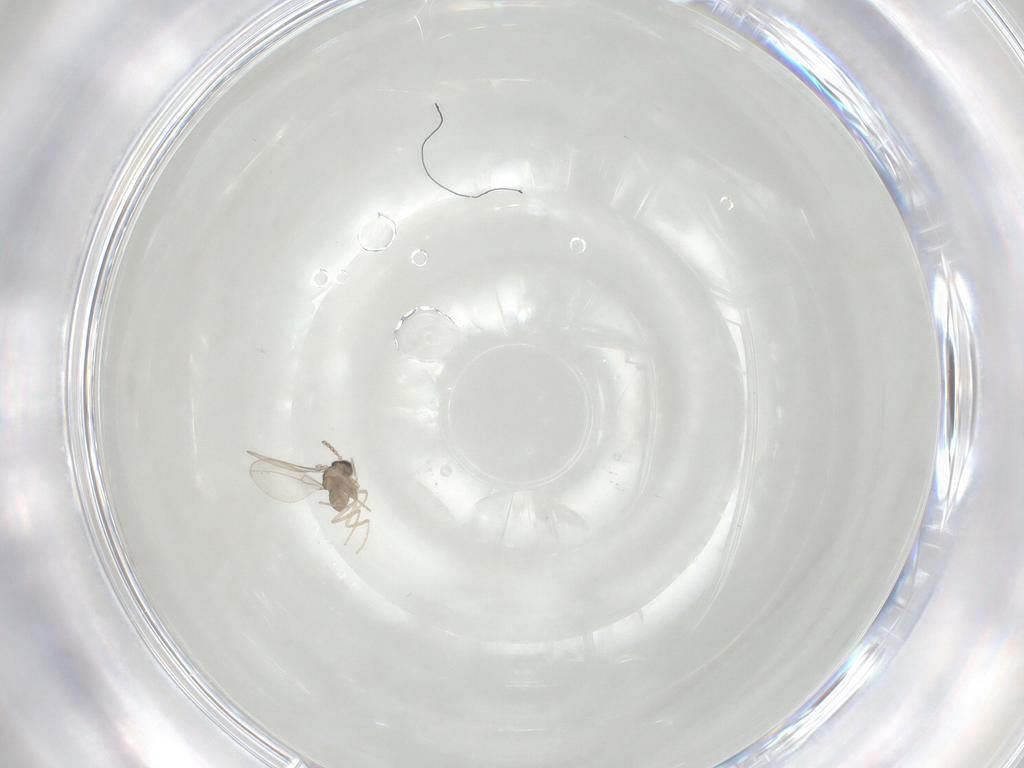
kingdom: Animalia
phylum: Arthropoda
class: Insecta
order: Diptera
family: Cecidomyiidae
